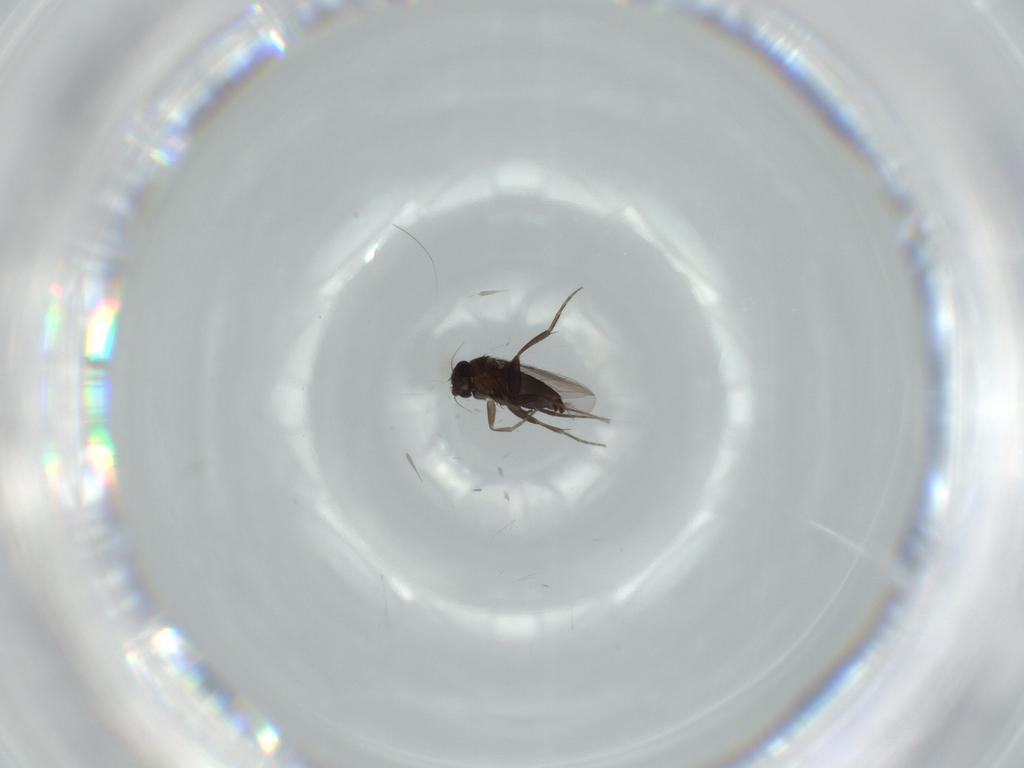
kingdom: Animalia
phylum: Arthropoda
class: Insecta
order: Diptera
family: Phoridae
